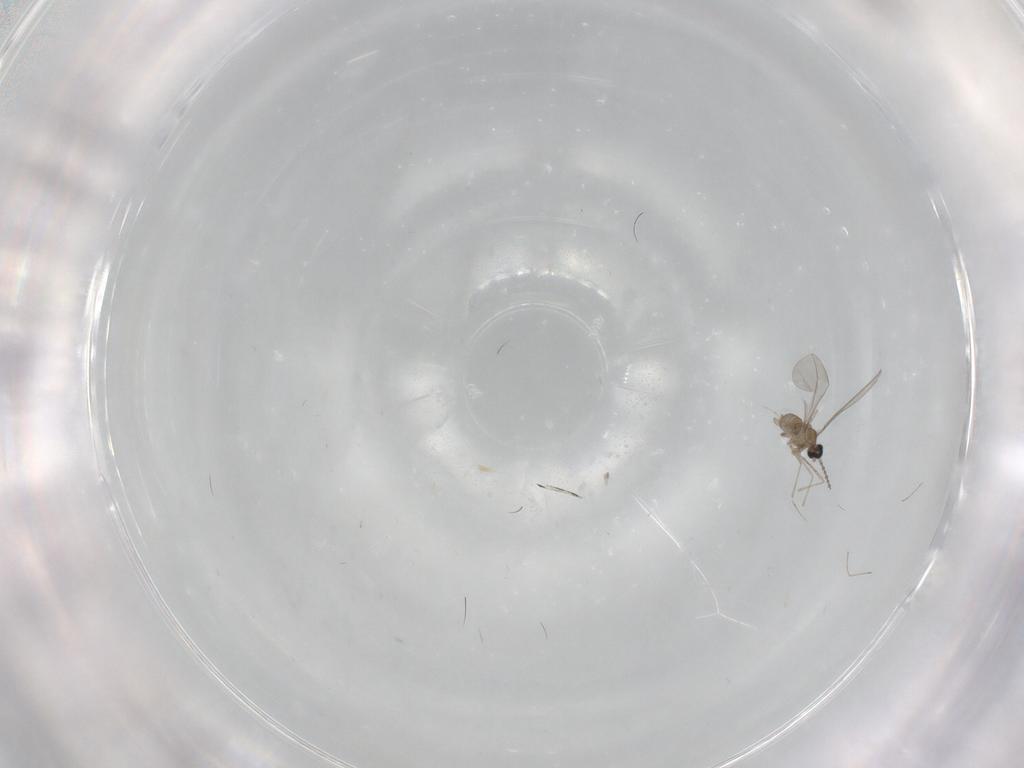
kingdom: Animalia
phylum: Arthropoda
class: Insecta
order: Diptera
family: Cecidomyiidae
